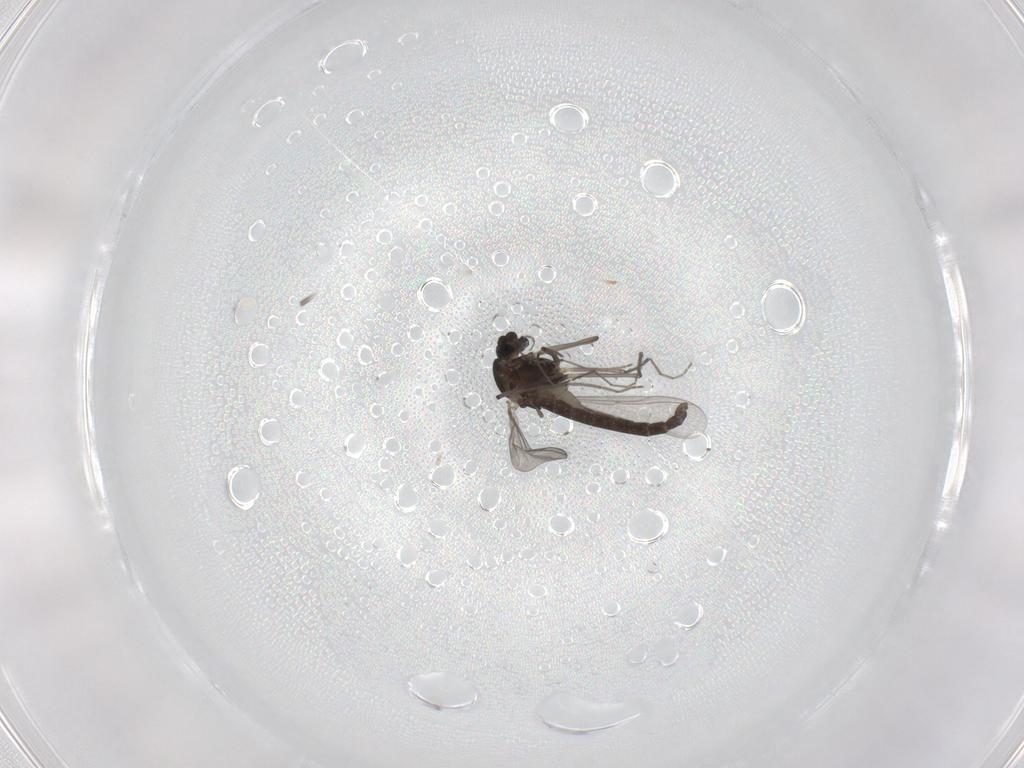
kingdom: Animalia
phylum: Arthropoda
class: Insecta
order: Diptera
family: Chironomidae
